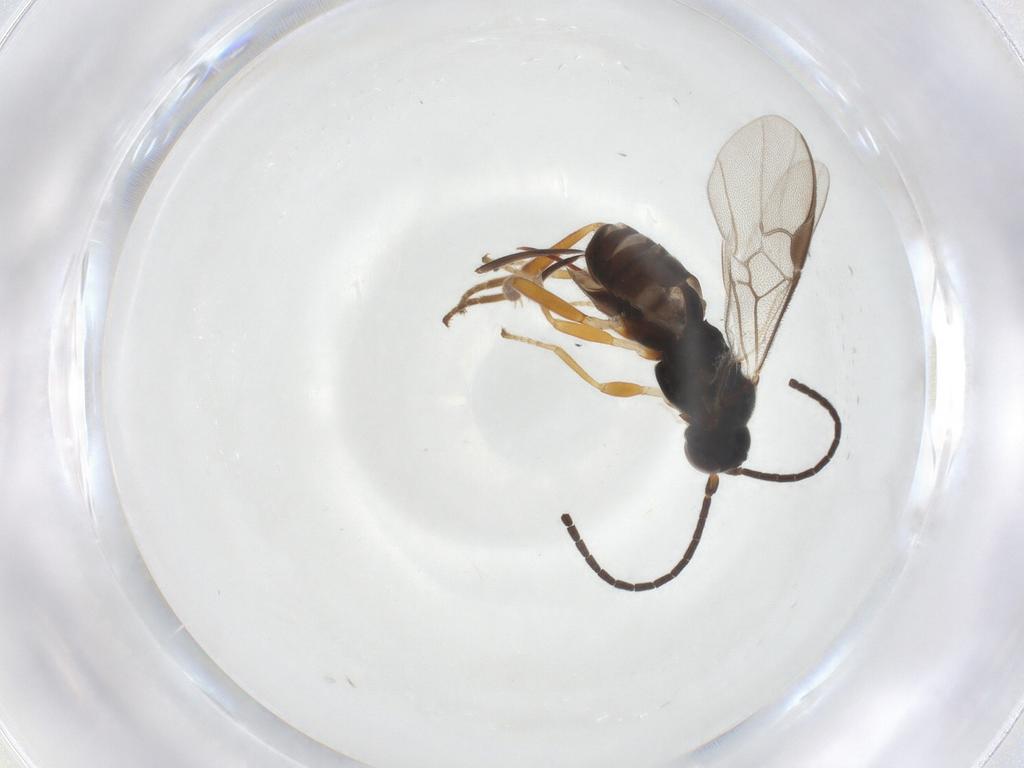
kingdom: Animalia
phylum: Arthropoda
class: Insecta
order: Hymenoptera
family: Braconidae
